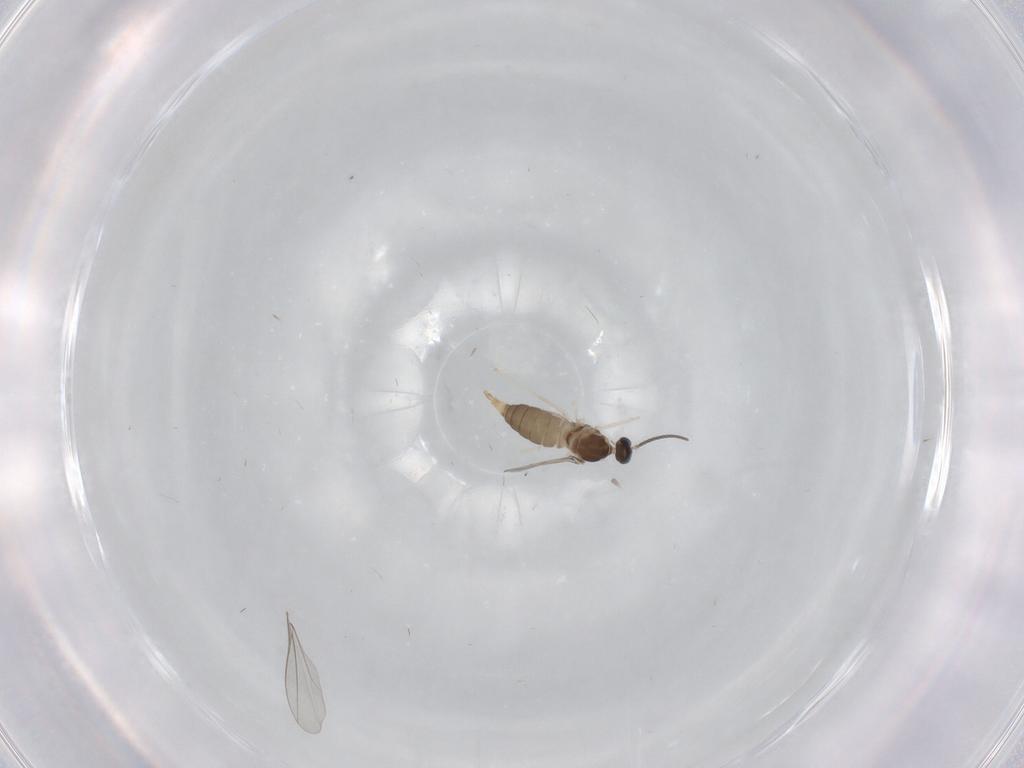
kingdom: Animalia
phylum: Arthropoda
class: Insecta
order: Diptera
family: Cecidomyiidae
